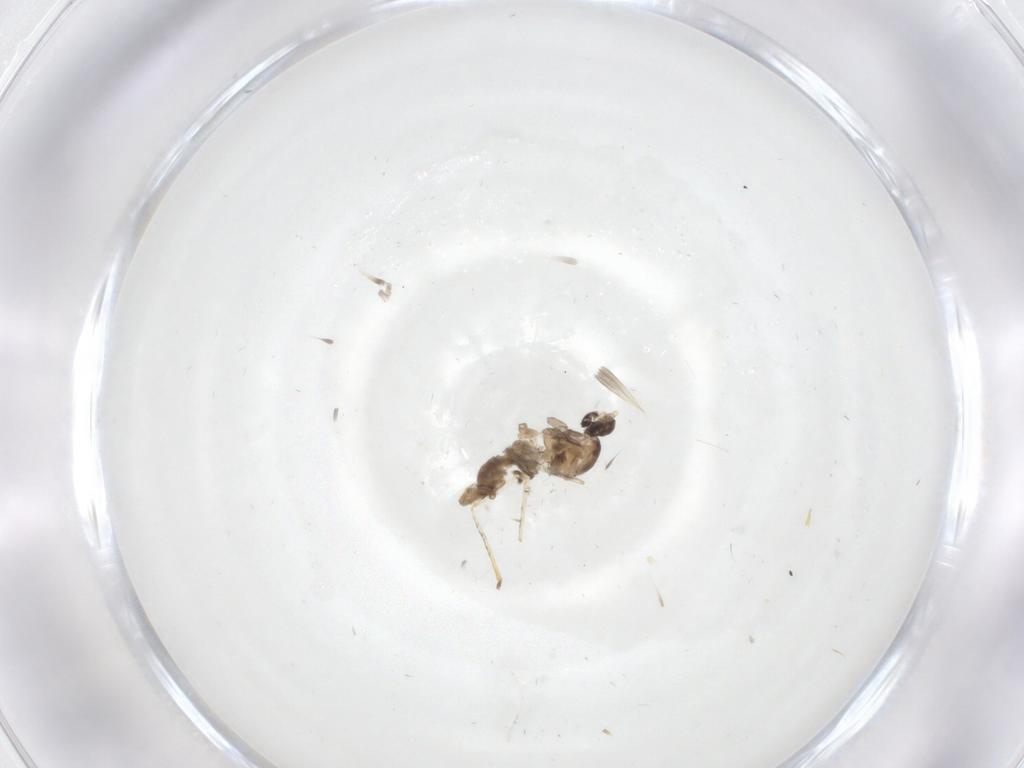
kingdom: Animalia
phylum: Arthropoda
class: Insecta
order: Diptera
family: Cecidomyiidae
